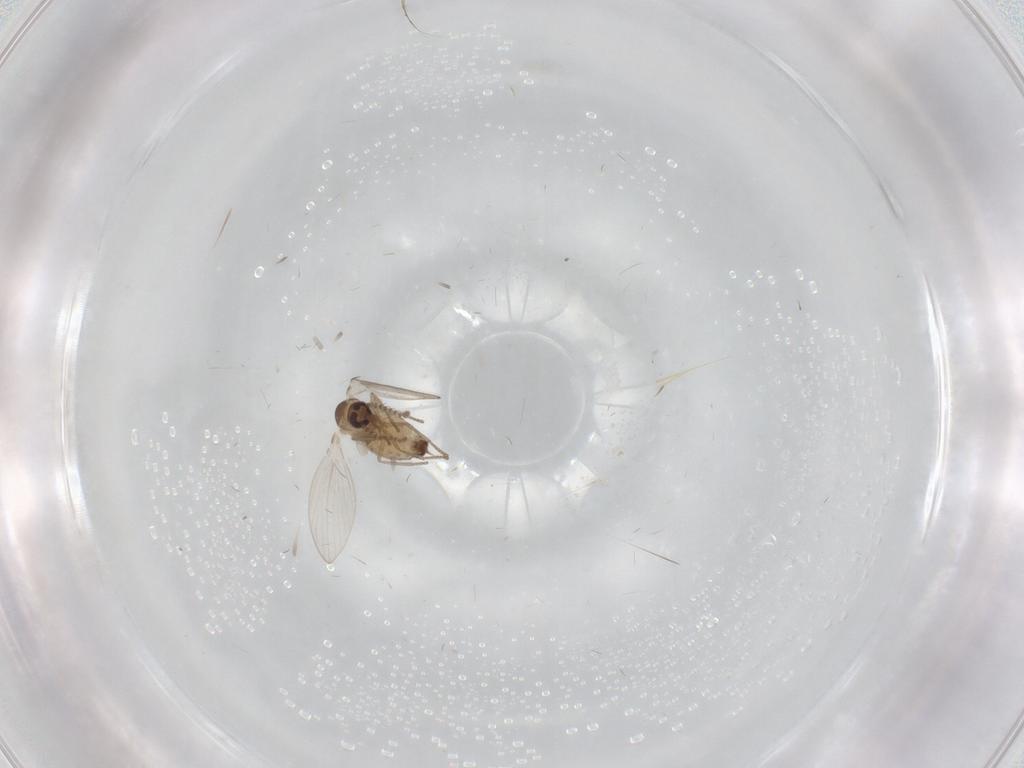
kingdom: Animalia
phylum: Arthropoda
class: Insecta
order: Diptera
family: Psychodidae
